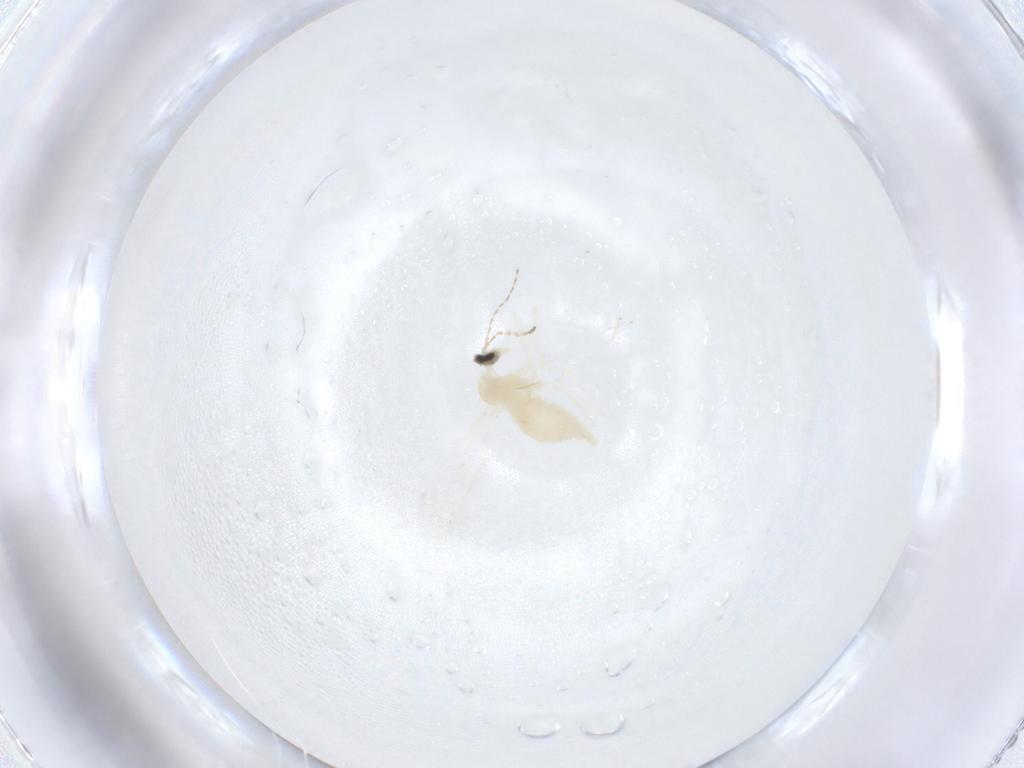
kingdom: Animalia
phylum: Arthropoda
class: Insecta
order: Diptera
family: Cecidomyiidae
